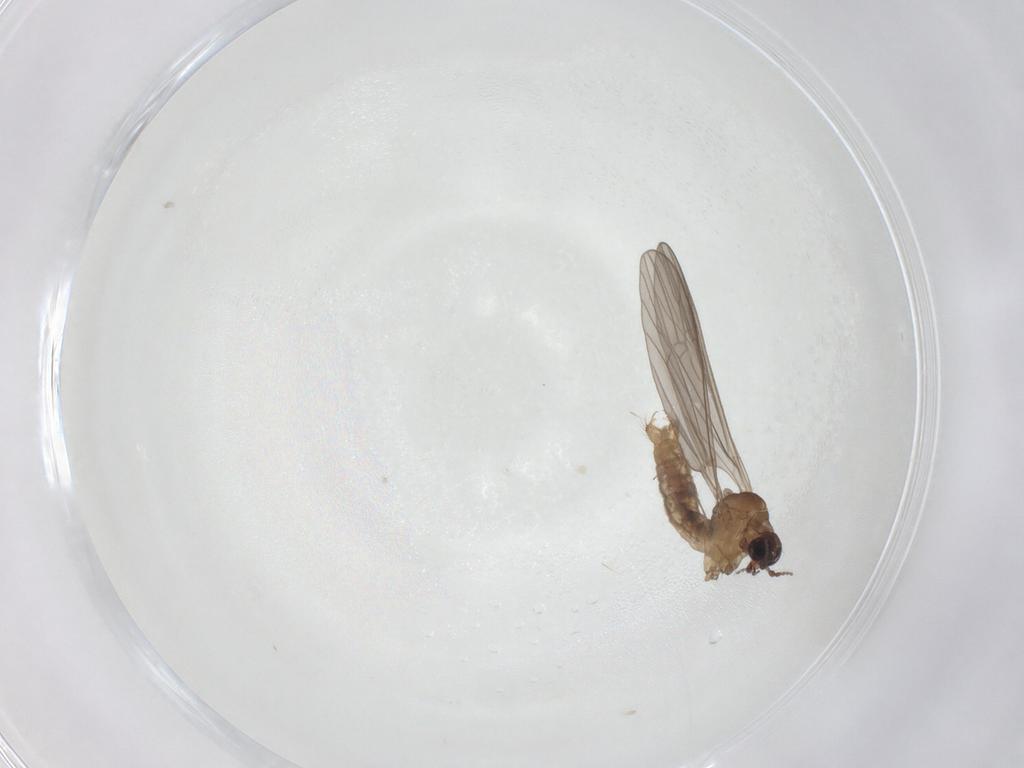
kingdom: Animalia
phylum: Arthropoda
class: Insecta
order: Diptera
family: Limoniidae
